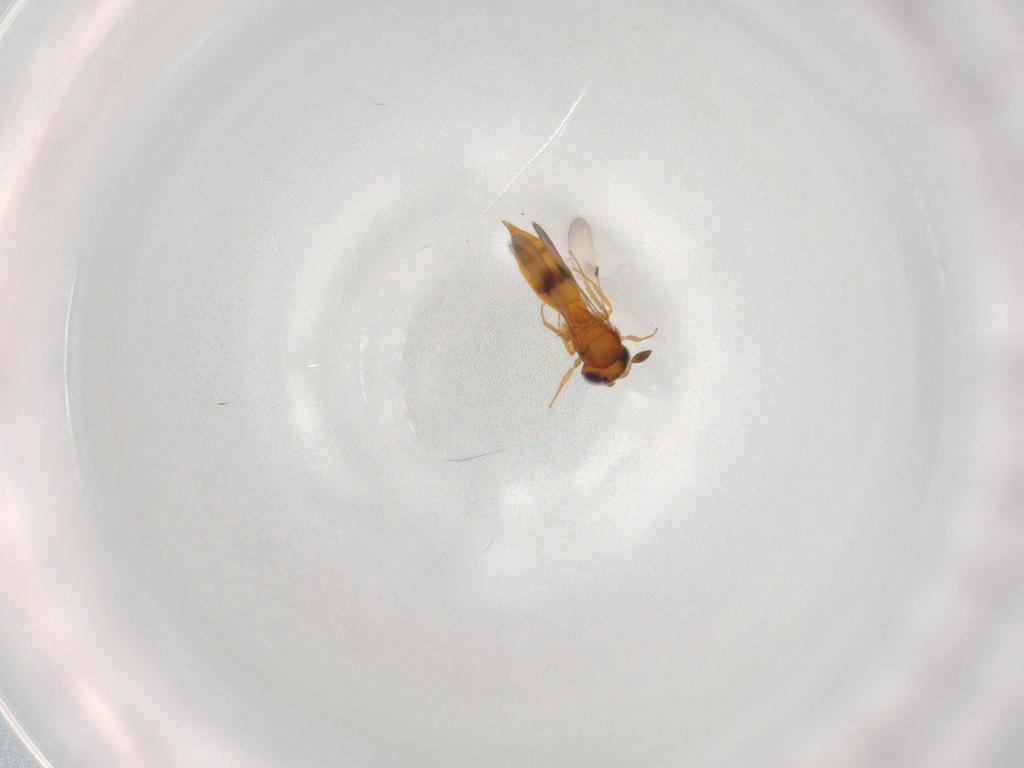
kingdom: Animalia
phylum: Arthropoda
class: Insecta
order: Hymenoptera
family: Scelionidae
